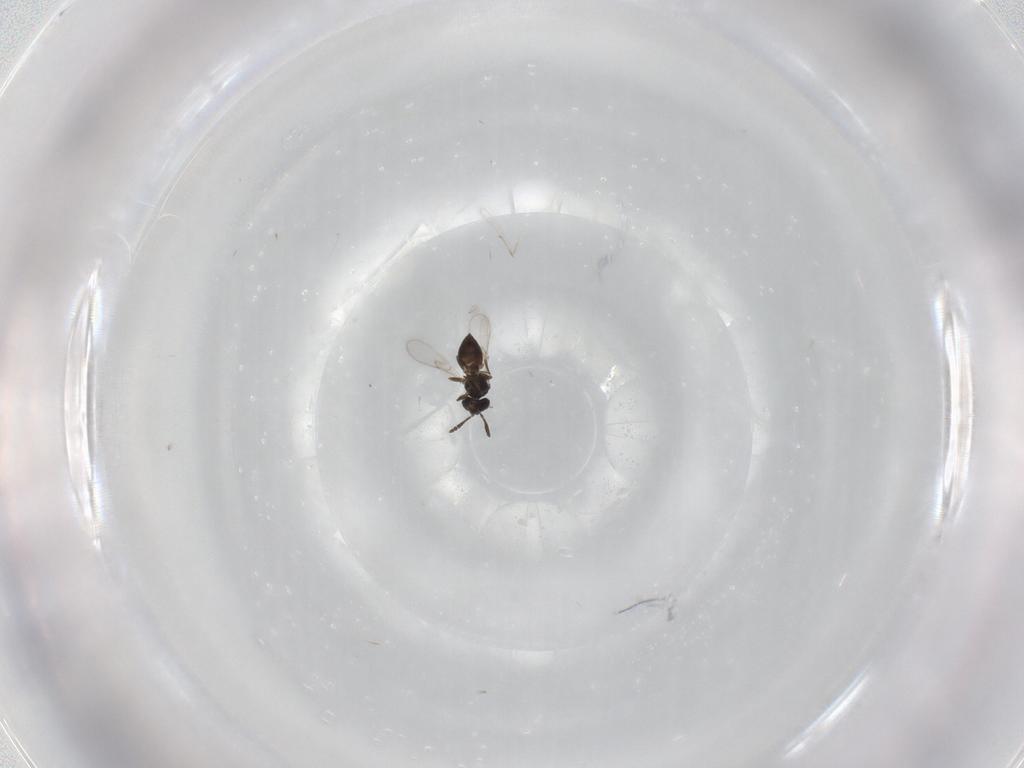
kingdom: Animalia
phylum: Arthropoda
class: Insecta
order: Hymenoptera
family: Scelionidae
